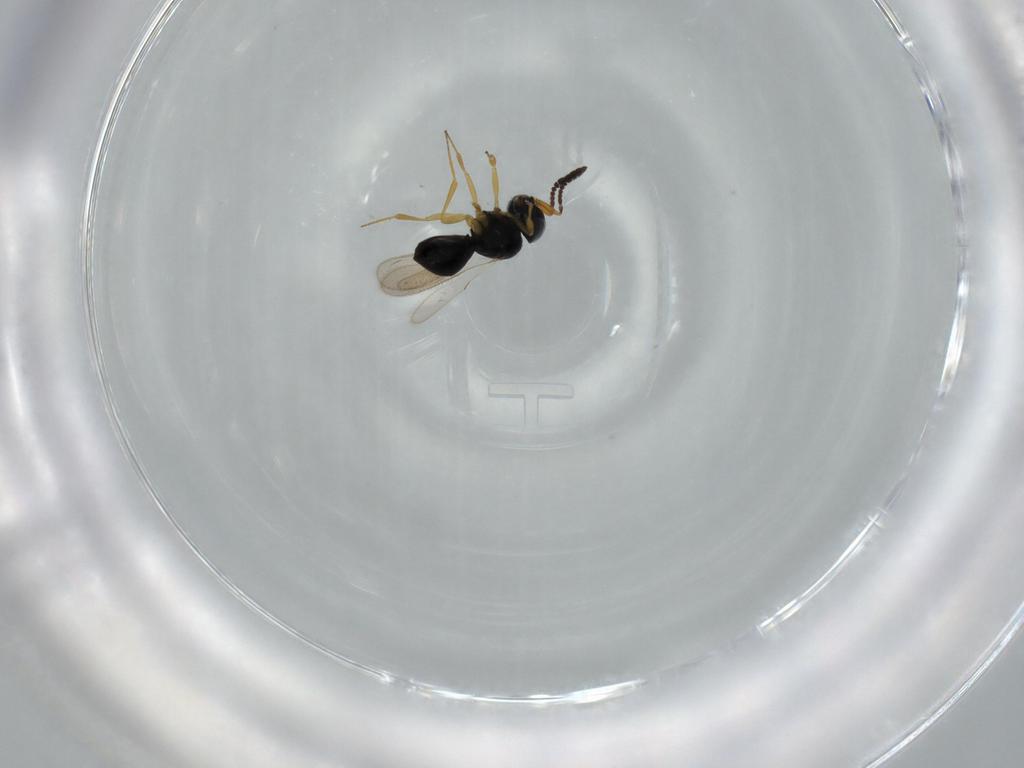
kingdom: Animalia
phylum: Arthropoda
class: Insecta
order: Hymenoptera
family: Scelionidae
